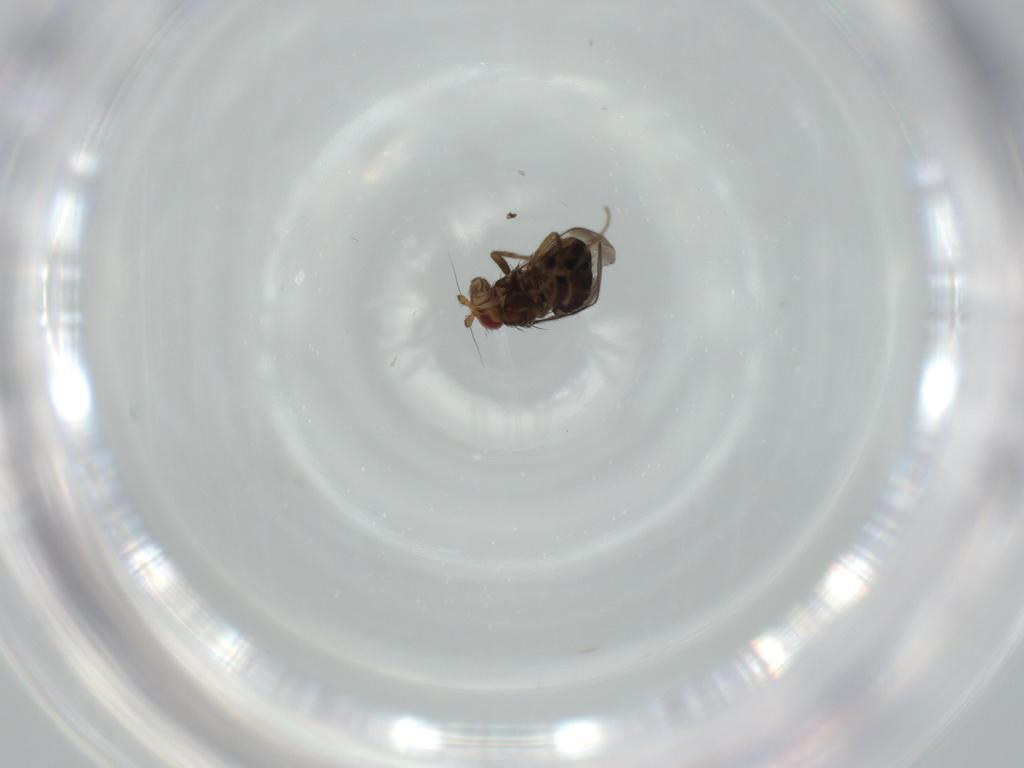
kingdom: Animalia
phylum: Arthropoda
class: Insecta
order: Diptera
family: Sphaeroceridae
